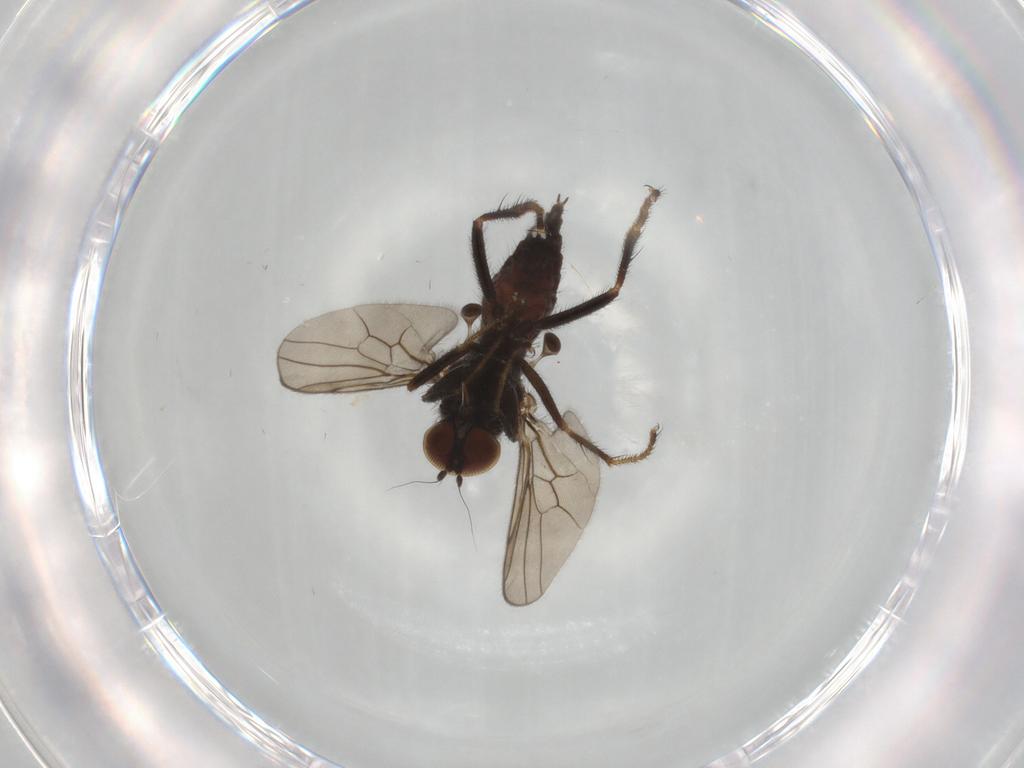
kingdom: Animalia
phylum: Arthropoda
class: Insecta
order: Diptera
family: Hybotidae
